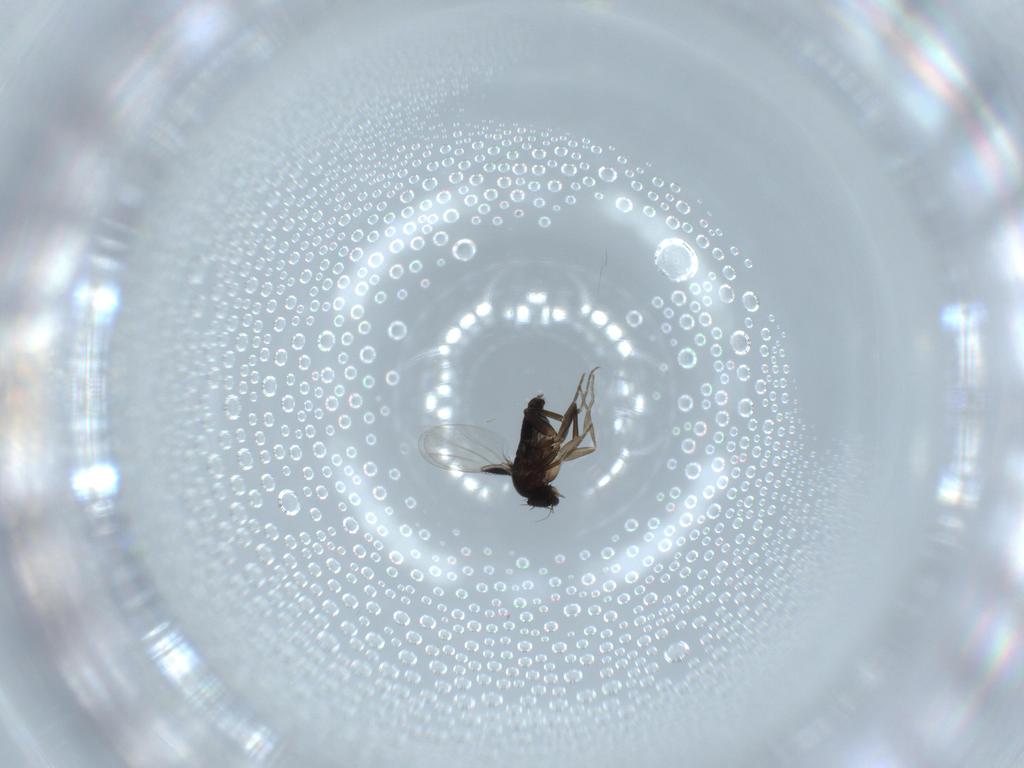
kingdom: Animalia
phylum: Arthropoda
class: Insecta
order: Diptera
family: Phoridae
